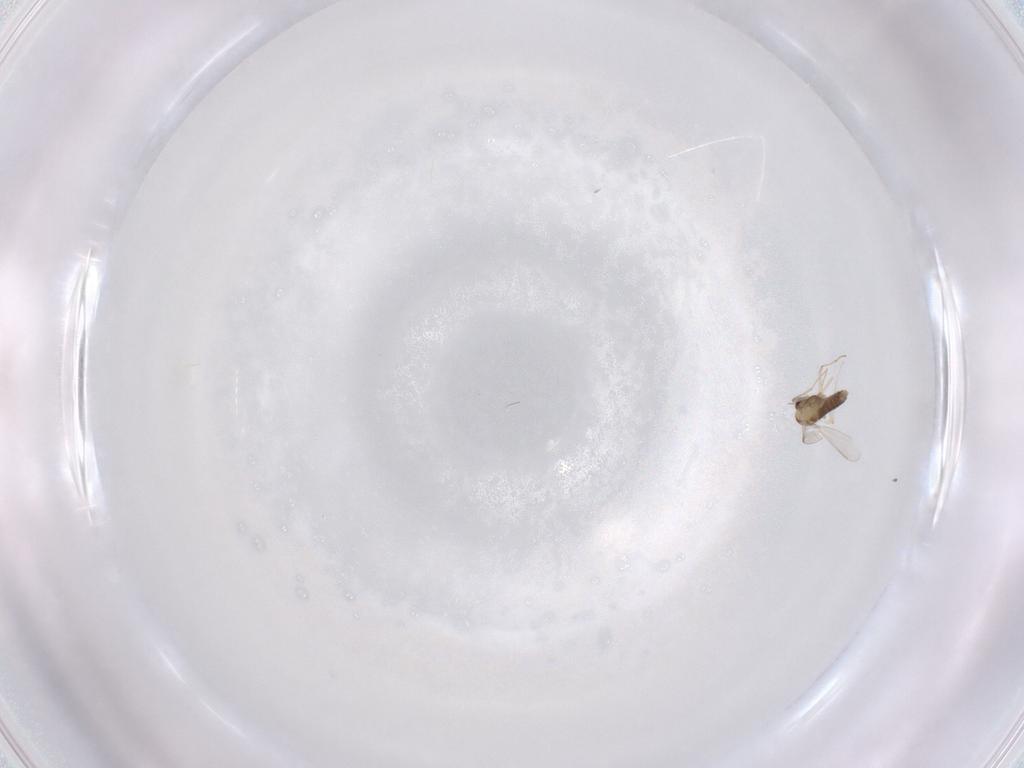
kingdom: Animalia
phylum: Arthropoda
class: Insecta
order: Diptera
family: Chironomidae
